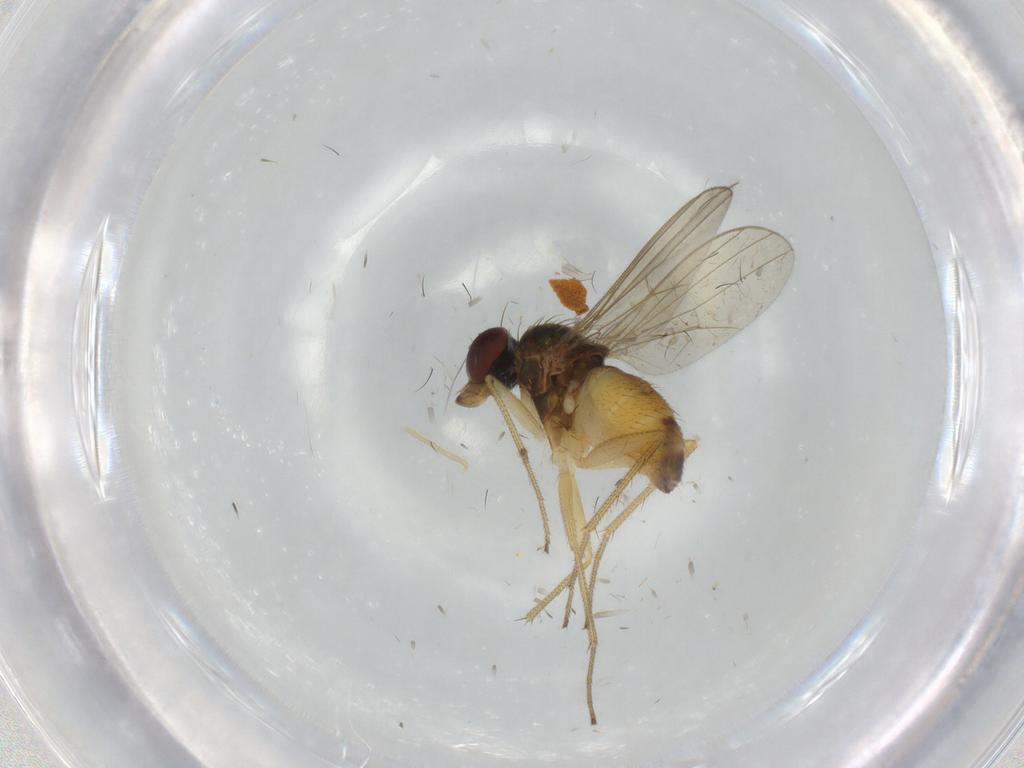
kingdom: Animalia
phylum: Arthropoda
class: Insecta
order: Diptera
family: Dolichopodidae
